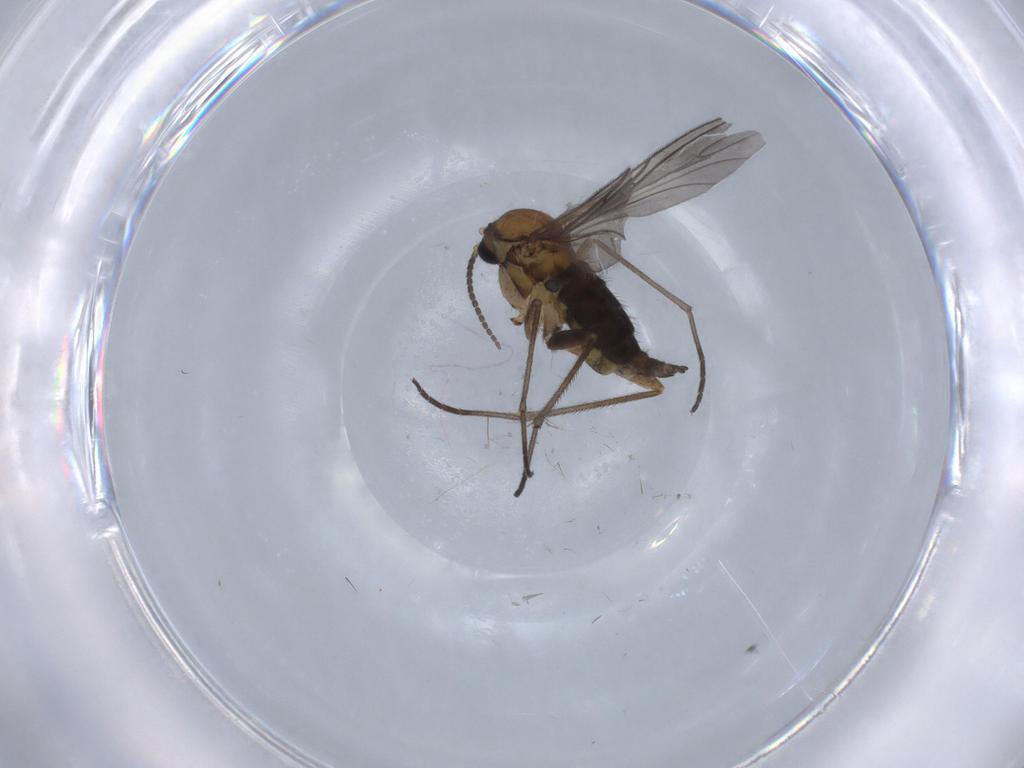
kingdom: Animalia
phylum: Arthropoda
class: Insecta
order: Diptera
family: Sciaridae
